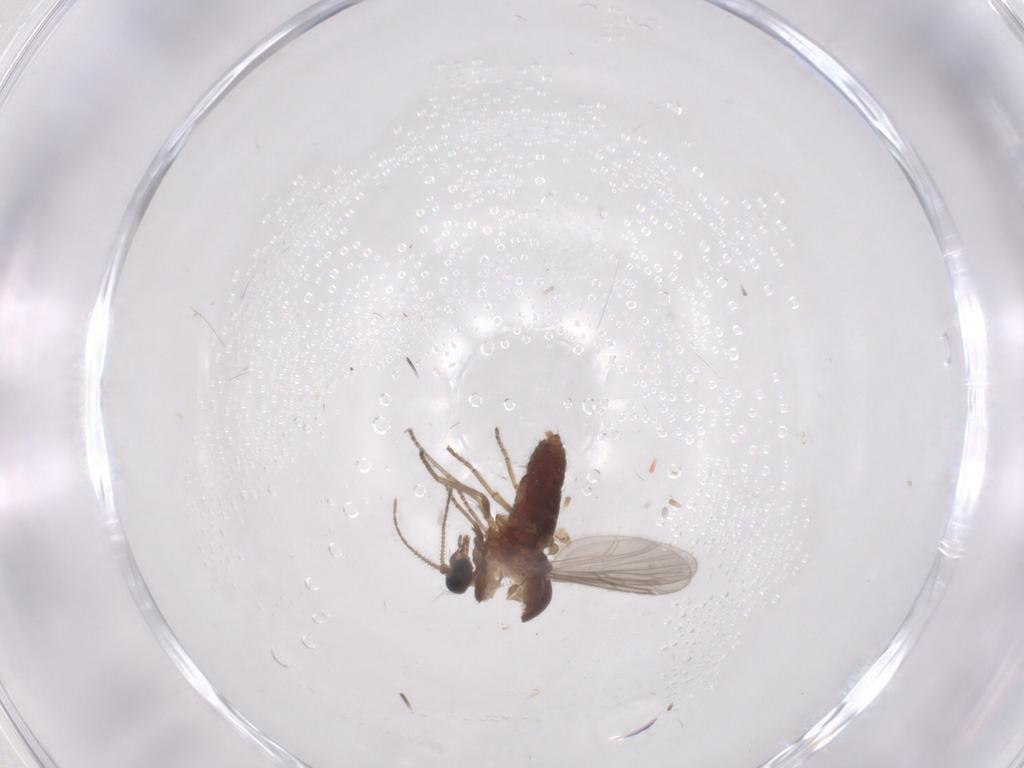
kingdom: Animalia
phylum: Arthropoda
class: Insecta
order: Diptera
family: Ceratopogonidae
